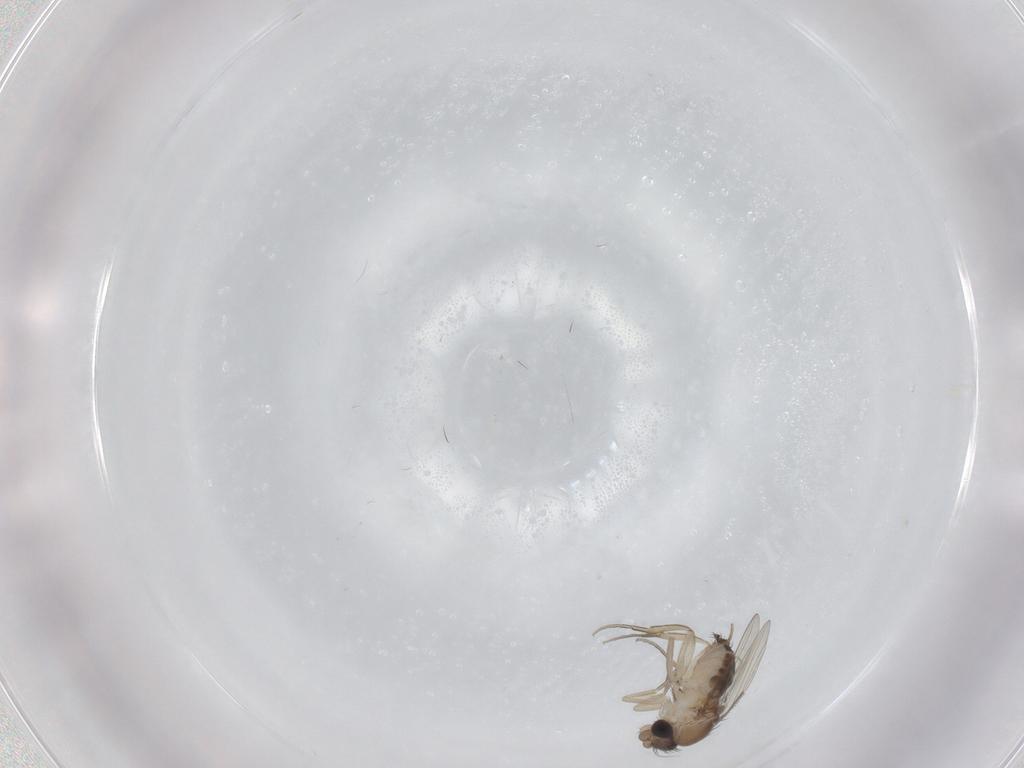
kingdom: Animalia
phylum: Arthropoda
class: Insecta
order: Diptera
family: Phoridae
